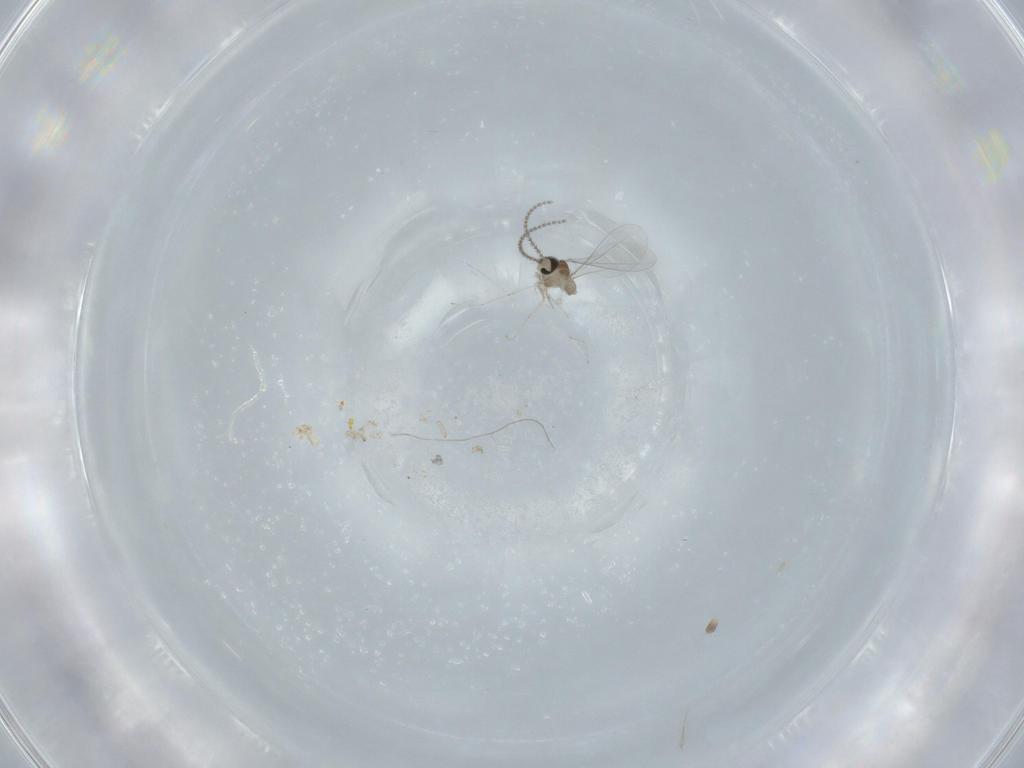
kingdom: Animalia
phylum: Arthropoda
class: Insecta
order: Diptera
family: Cecidomyiidae
